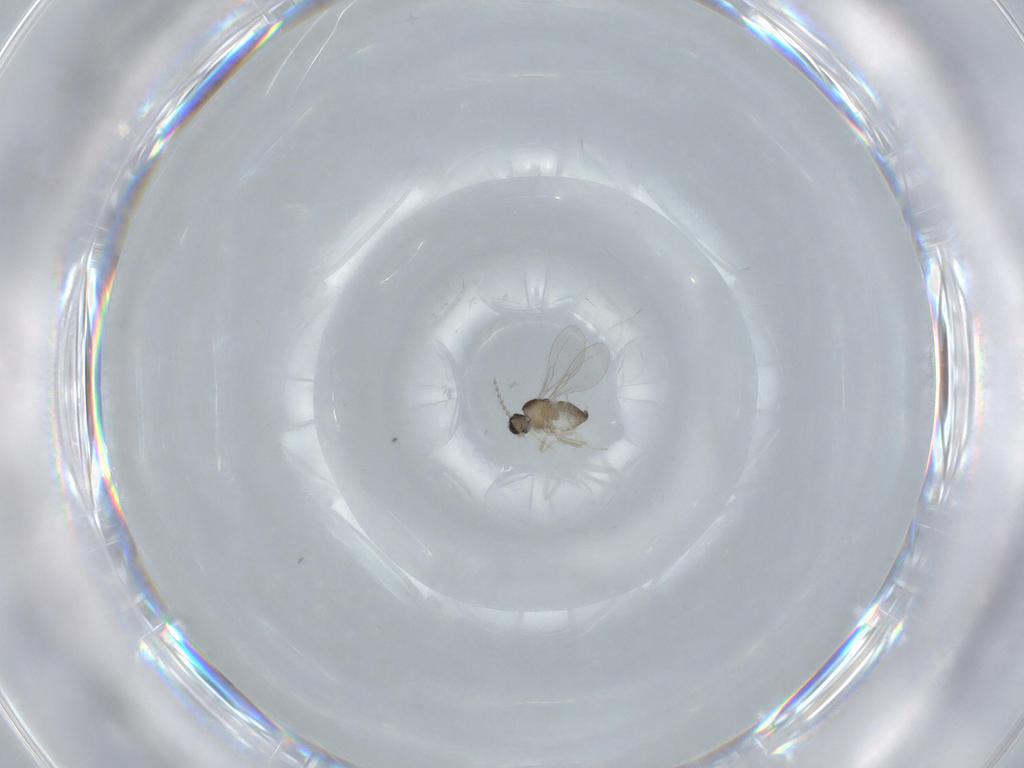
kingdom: Animalia
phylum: Arthropoda
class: Insecta
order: Diptera
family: Cecidomyiidae
